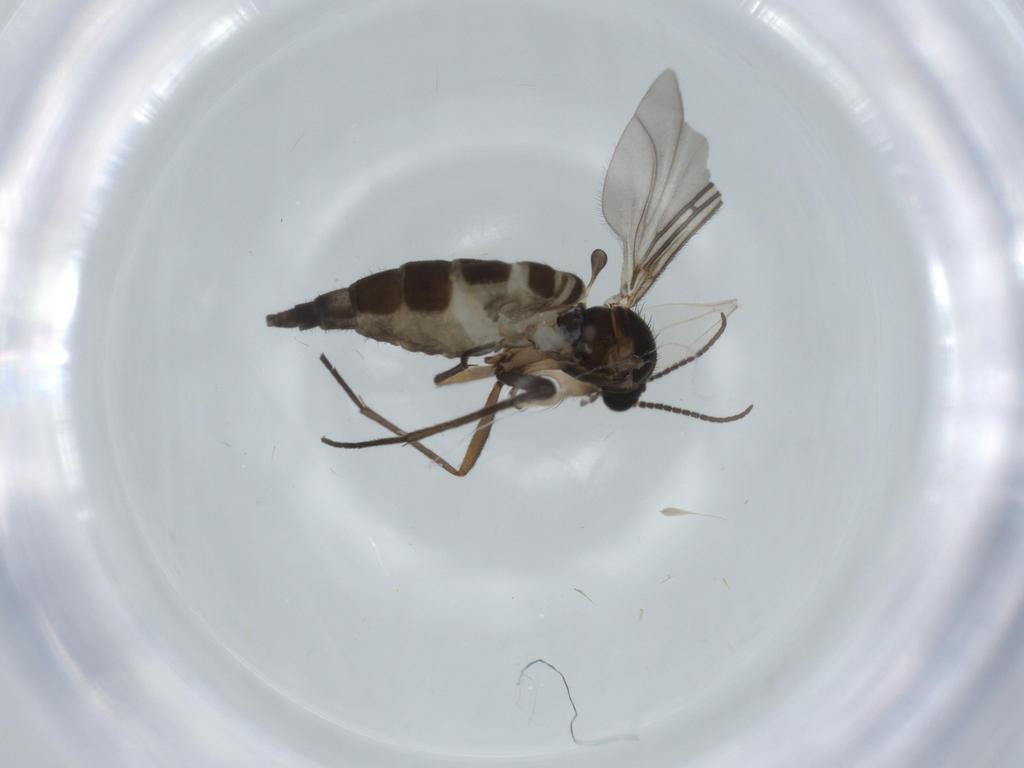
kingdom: Animalia
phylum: Arthropoda
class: Insecta
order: Diptera
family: Sciaridae
